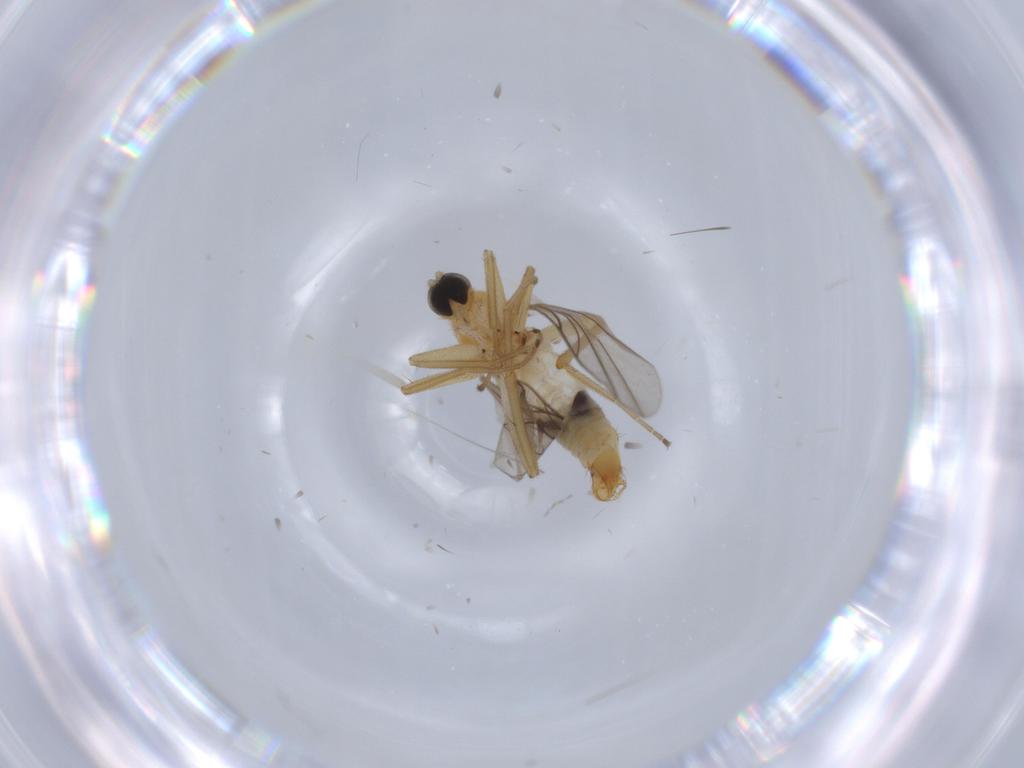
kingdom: Animalia
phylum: Arthropoda
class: Insecta
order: Diptera
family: Hybotidae
